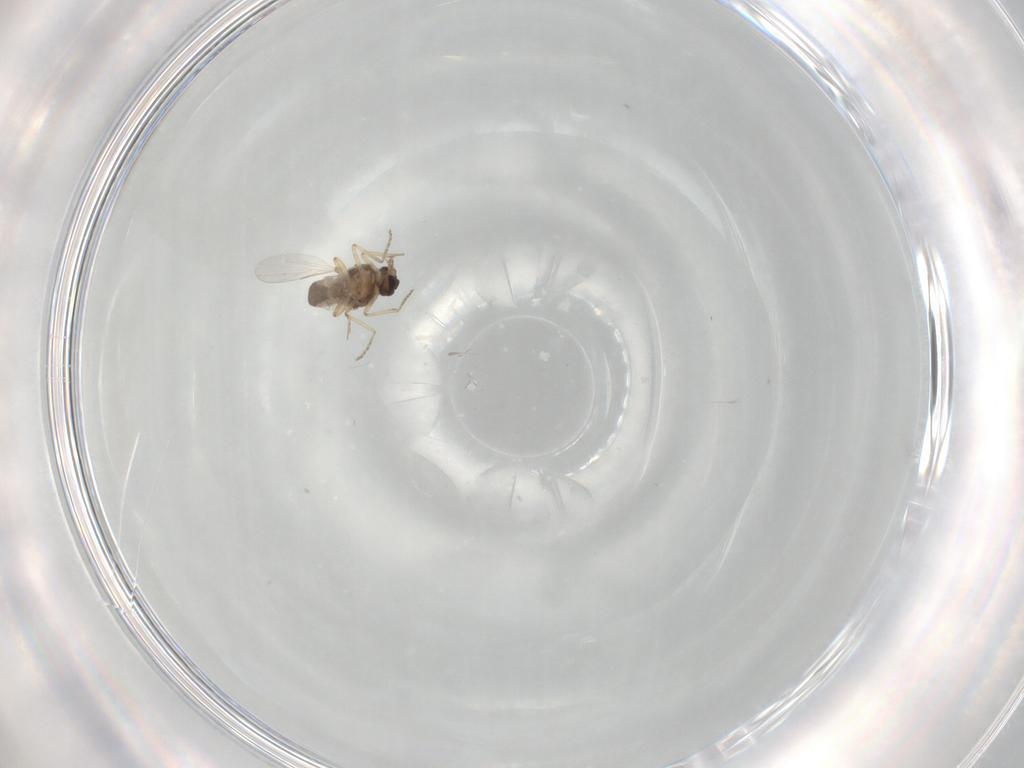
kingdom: Animalia
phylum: Arthropoda
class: Insecta
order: Diptera
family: Ceratopogonidae
